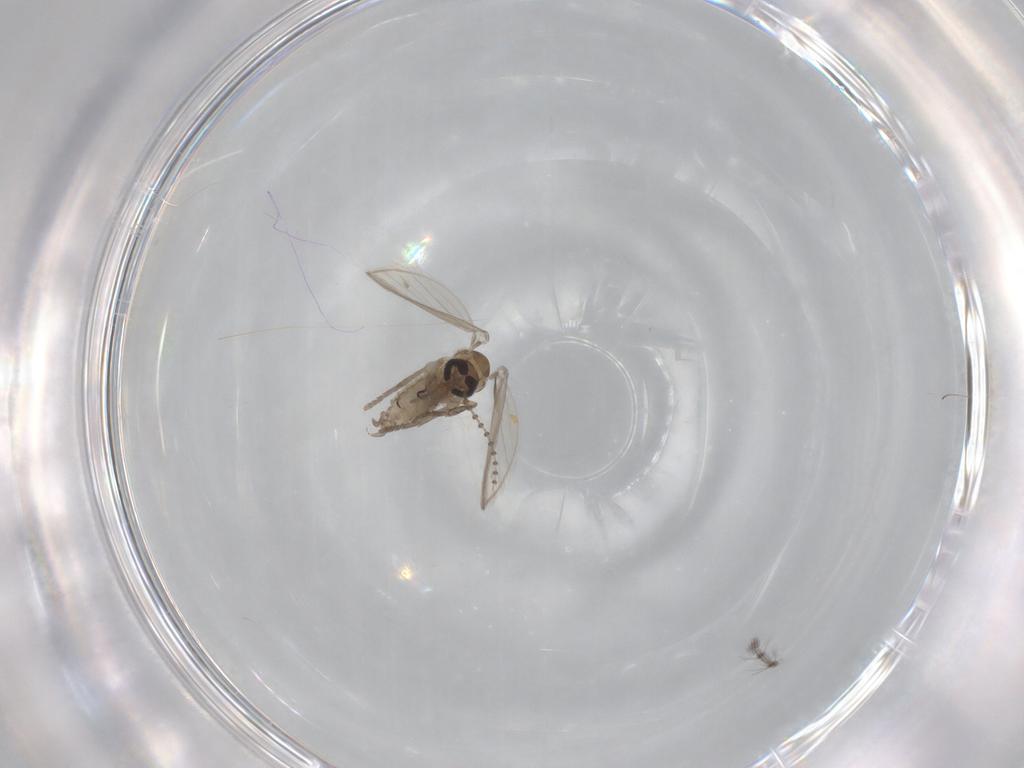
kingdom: Animalia
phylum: Arthropoda
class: Insecta
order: Diptera
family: Psychodidae
